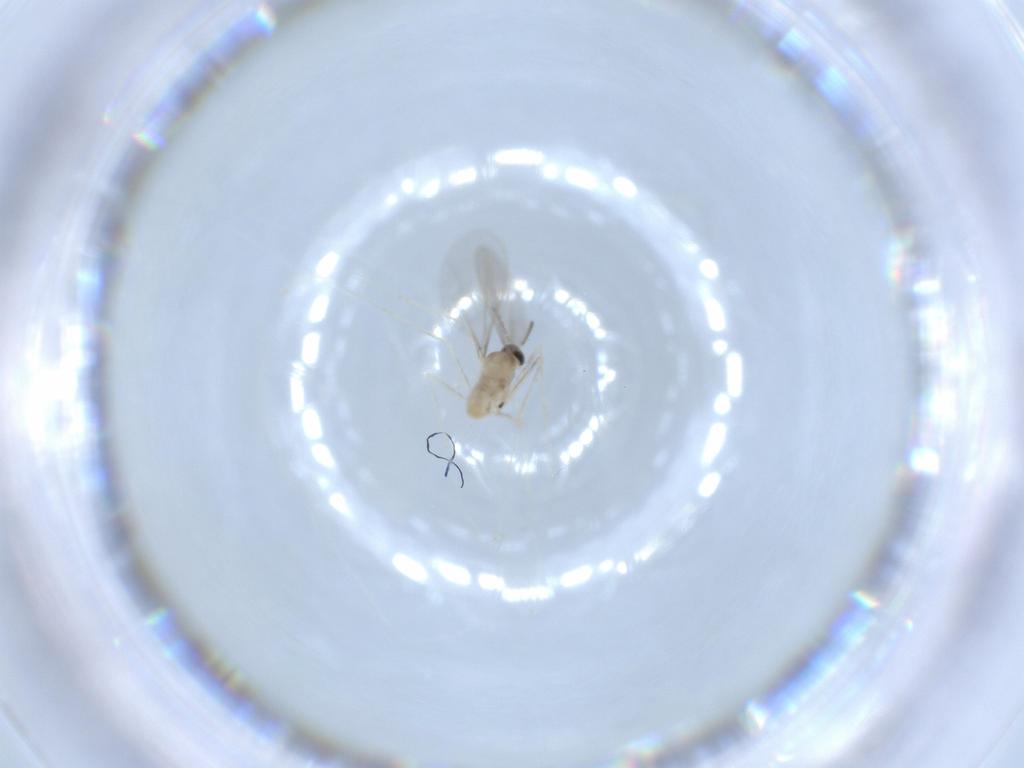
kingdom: Animalia
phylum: Arthropoda
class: Insecta
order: Diptera
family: Cecidomyiidae
